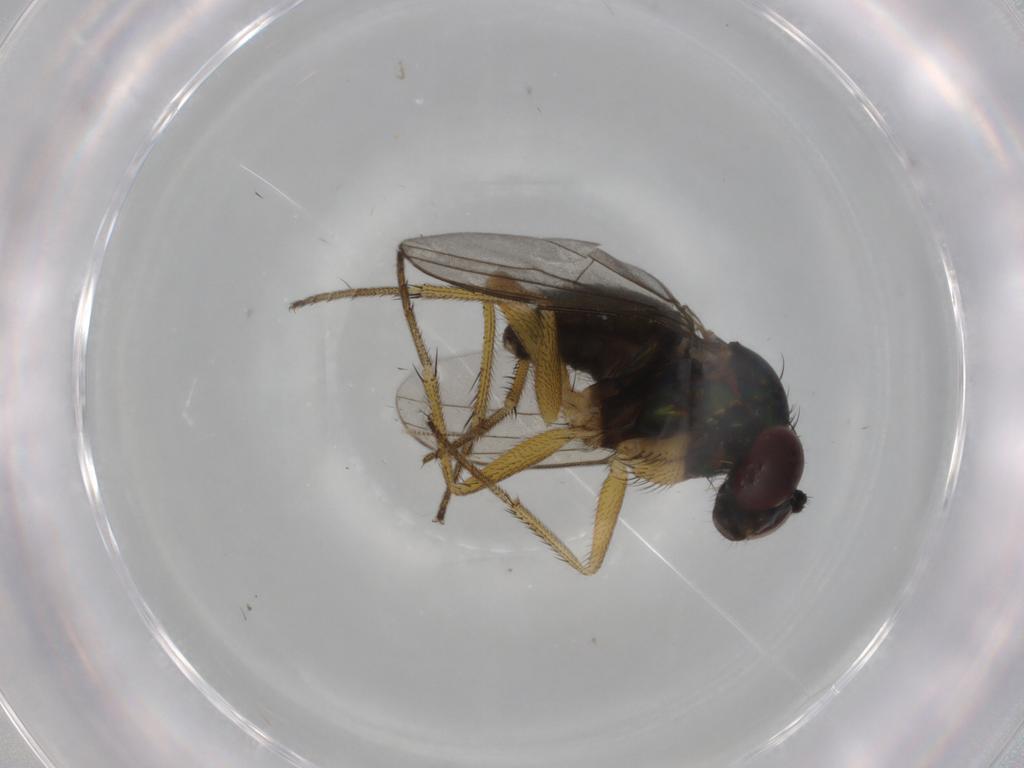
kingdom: Animalia
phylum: Arthropoda
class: Insecta
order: Diptera
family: Dolichopodidae
